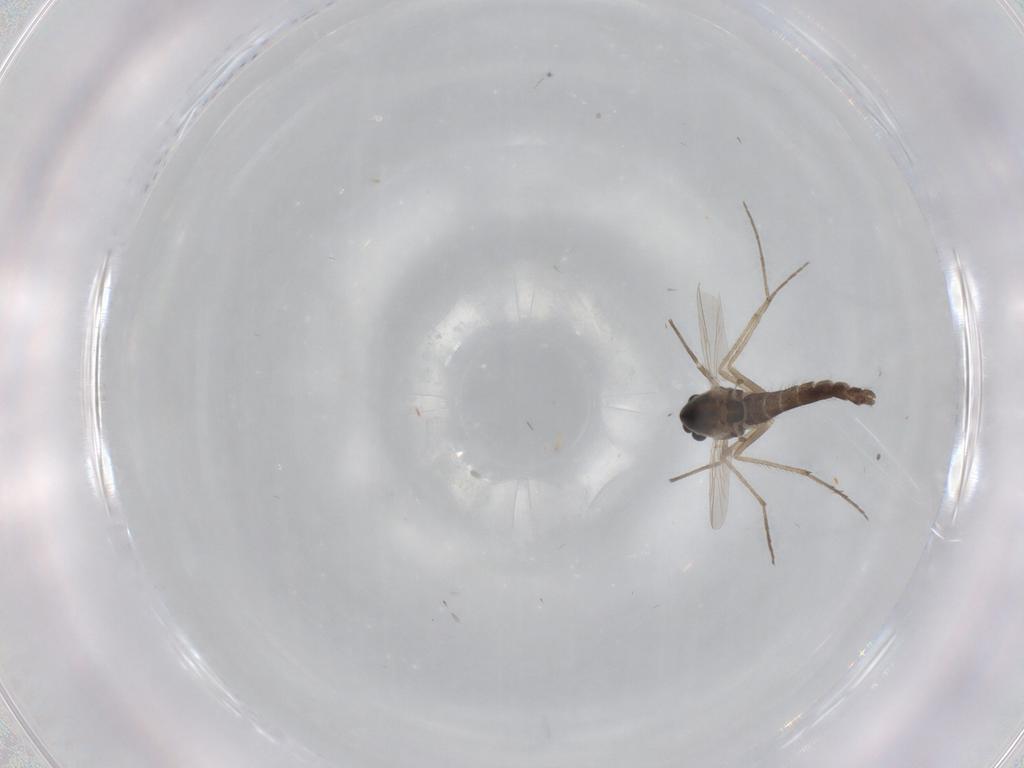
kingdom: Animalia
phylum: Arthropoda
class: Insecta
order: Diptera
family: Chironomidae
